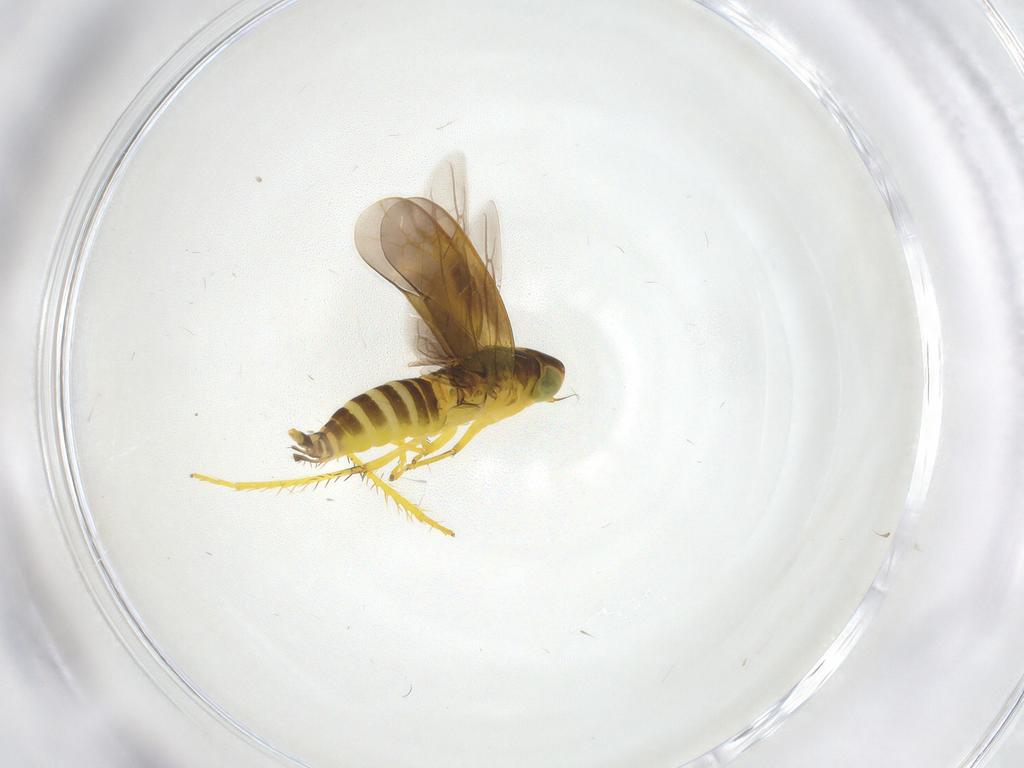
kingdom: Animalia
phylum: Arthropoda
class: Insecta
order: Hemiptera
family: Cicadellidae
